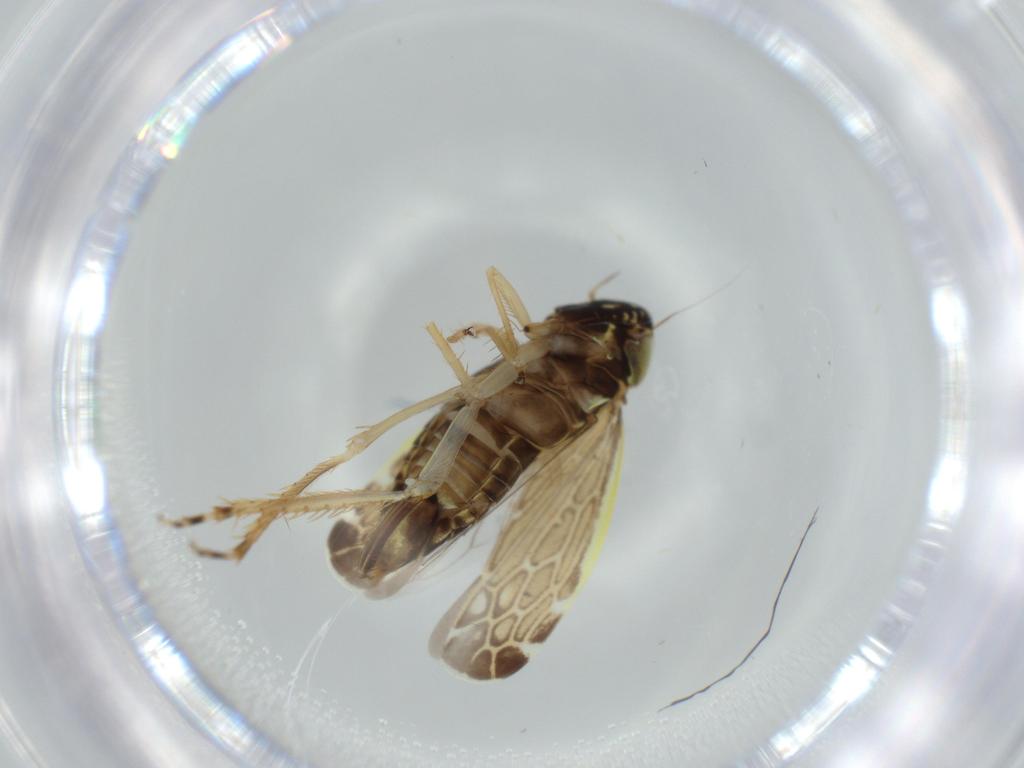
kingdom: Animalia
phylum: Arthropoda
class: Insecta
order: Hemiptera
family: Cicadellidae
